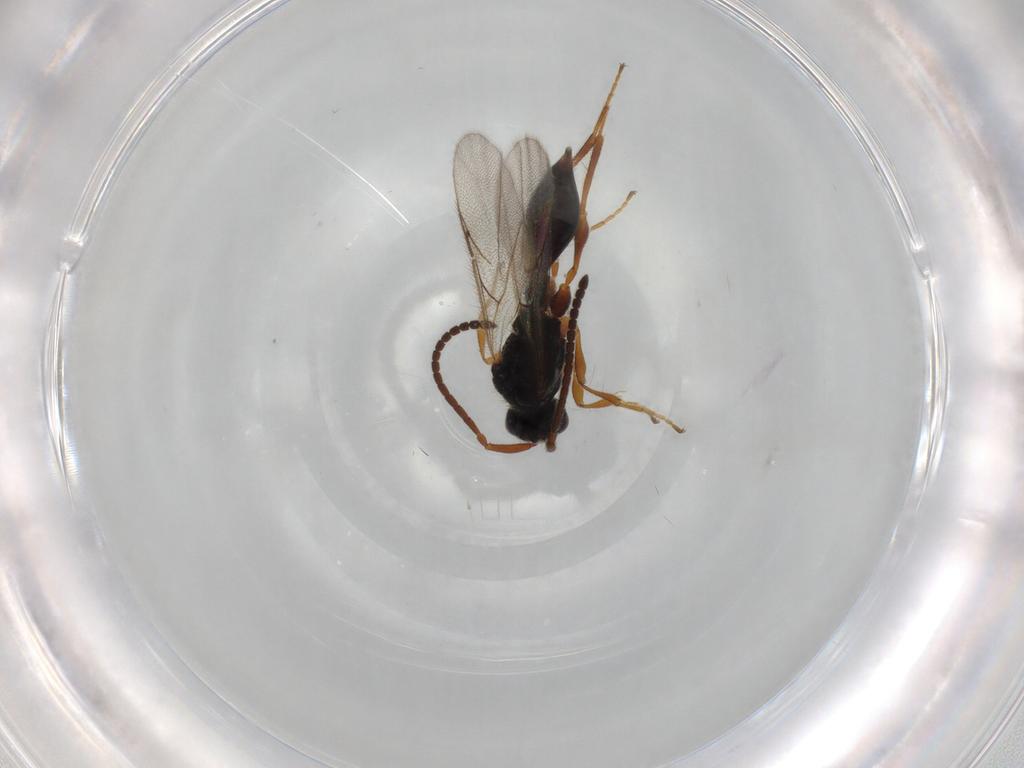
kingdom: Animalia
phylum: Arthropoda
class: Insecta
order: Hymenoptera
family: Diapriidae
